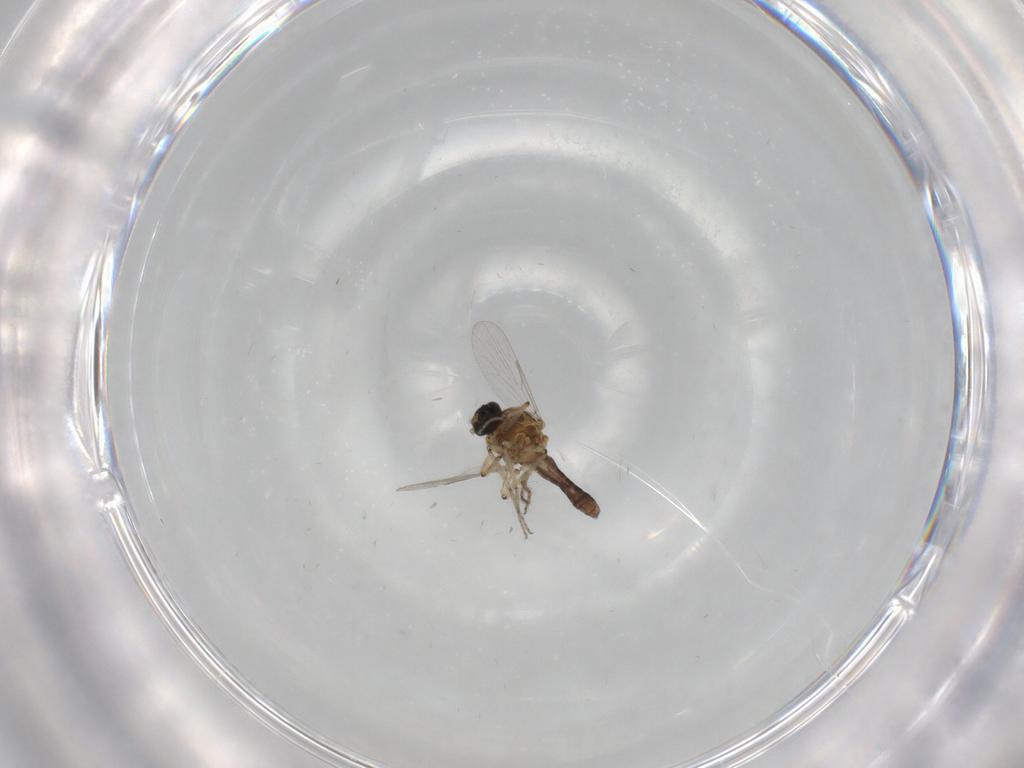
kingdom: Animalia
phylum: Arthropoda
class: Insecta
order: Diptera
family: Ceratopogonidae
